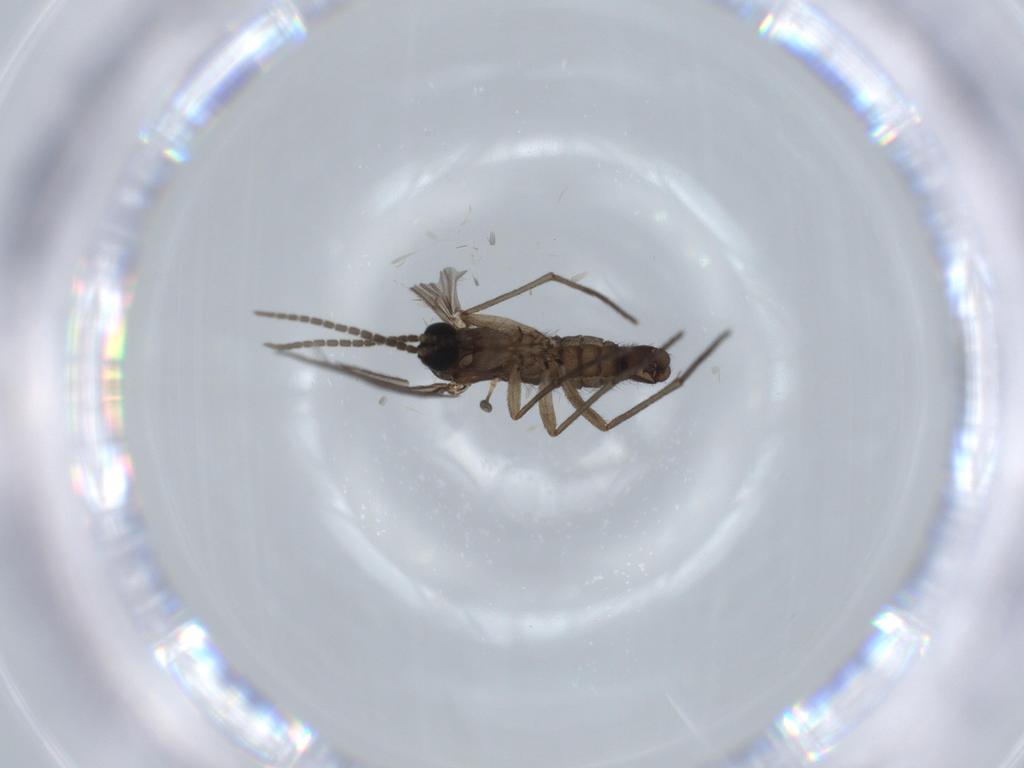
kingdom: Animalia
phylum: Arthropoda
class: Insecta
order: Diptera
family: Sciaridae
